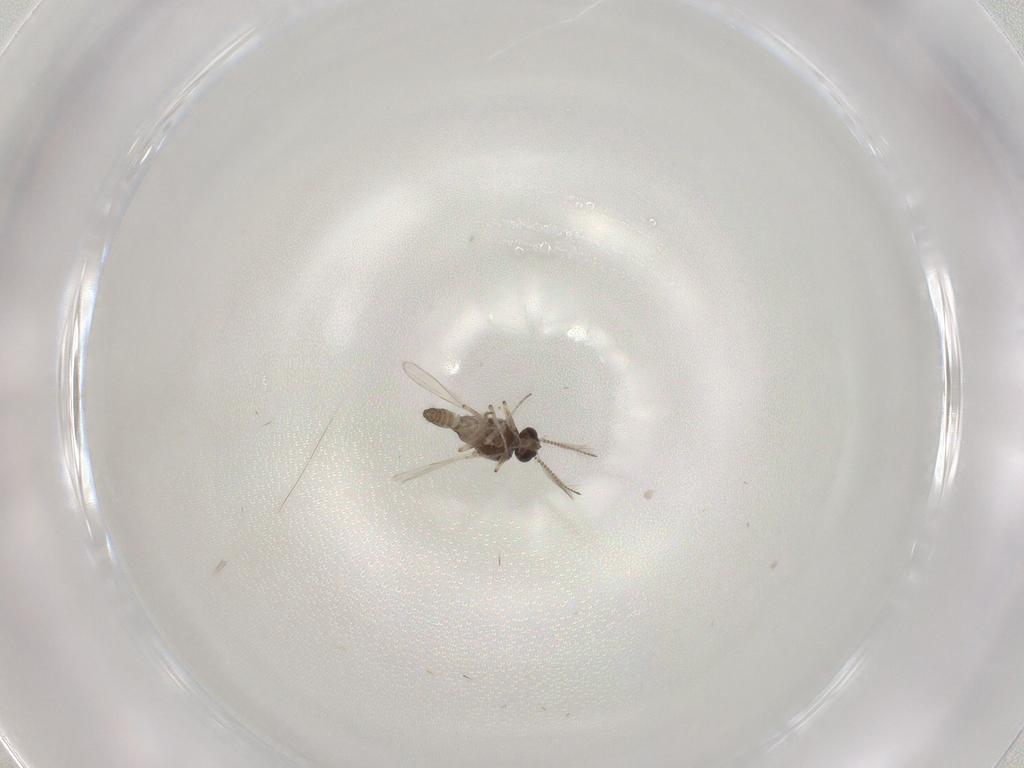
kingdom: Animalia
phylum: Arthropoda
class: Insecta
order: Diptera
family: Ceratopogonidae
